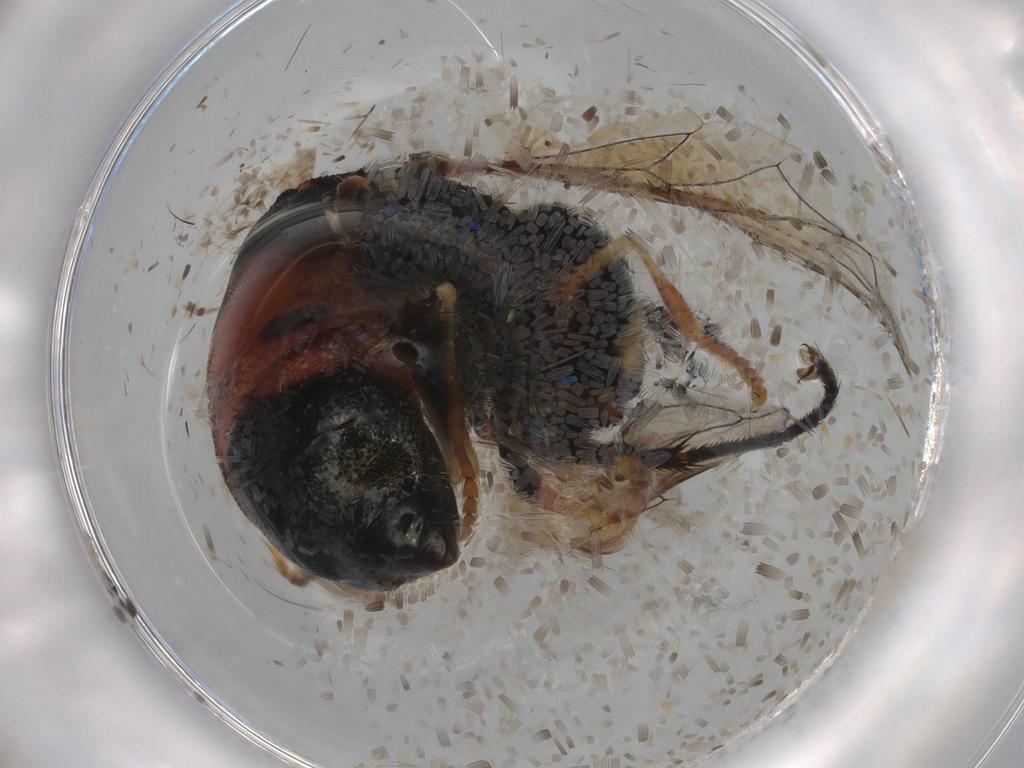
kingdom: Animalia
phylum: Arthropoda
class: Insecta
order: Diptera
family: Syrphidae
